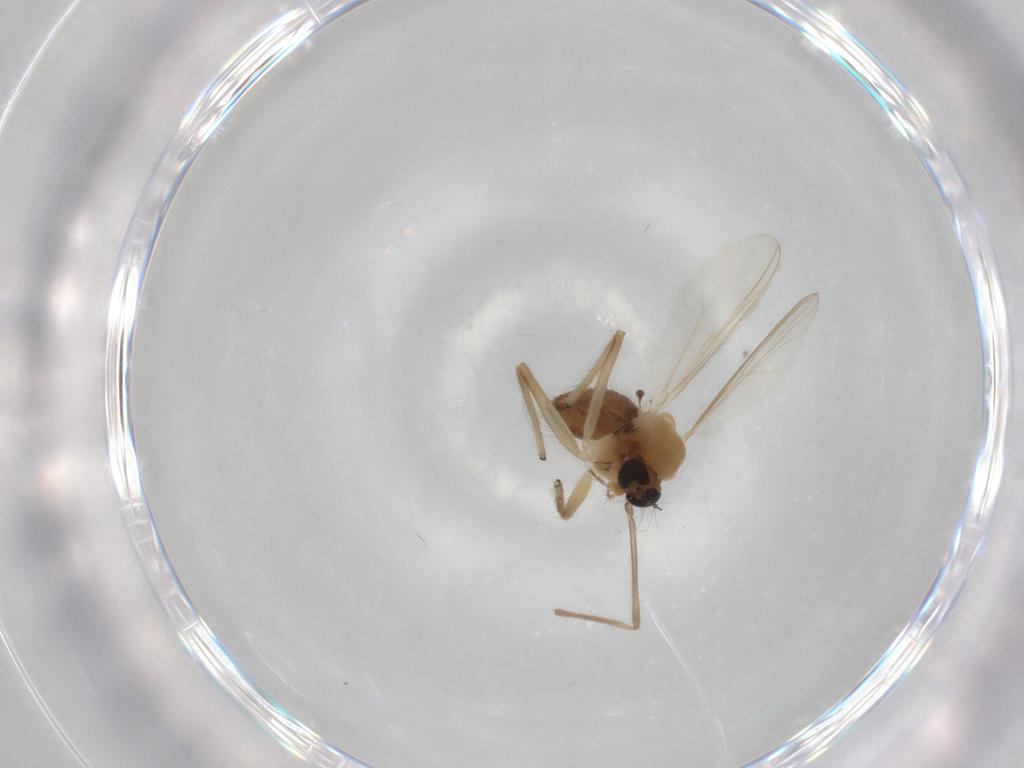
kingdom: Animalia
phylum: Arthropoda
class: Insecta
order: Diptera
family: Chironomidae
